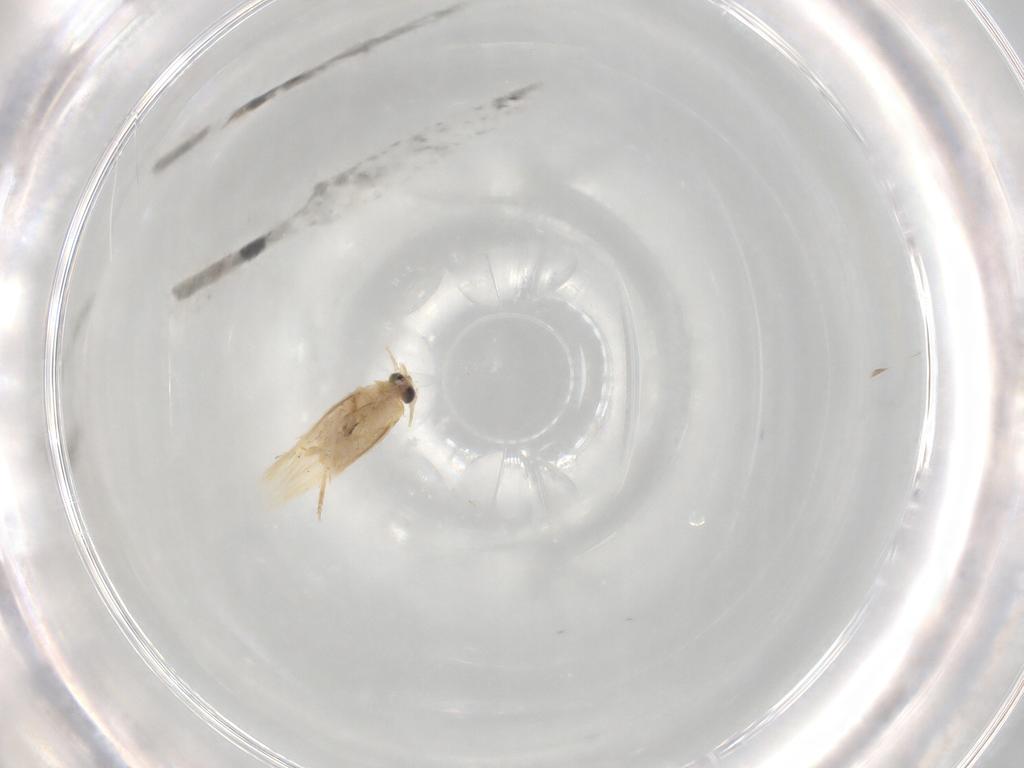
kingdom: Animalia
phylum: Arthropoda
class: Insecta
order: Lepidoptera
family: Nepticulidae
